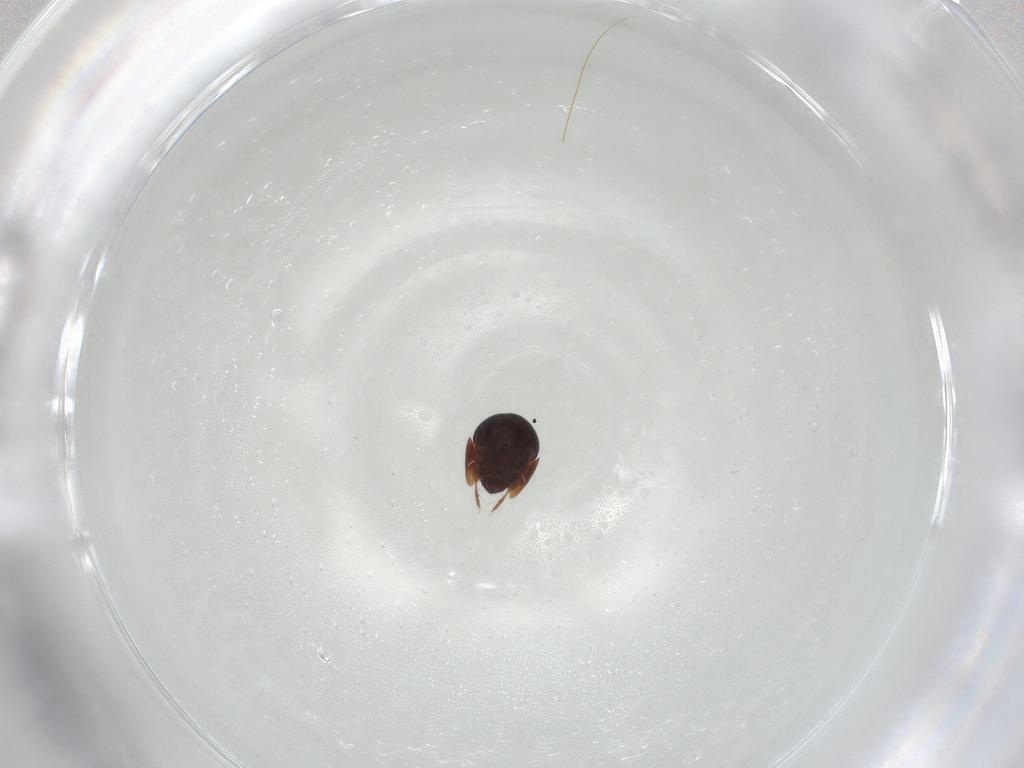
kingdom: Animalia
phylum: Arthropoda
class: Arachnida
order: Sarcoptiformes
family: Galumnidae
